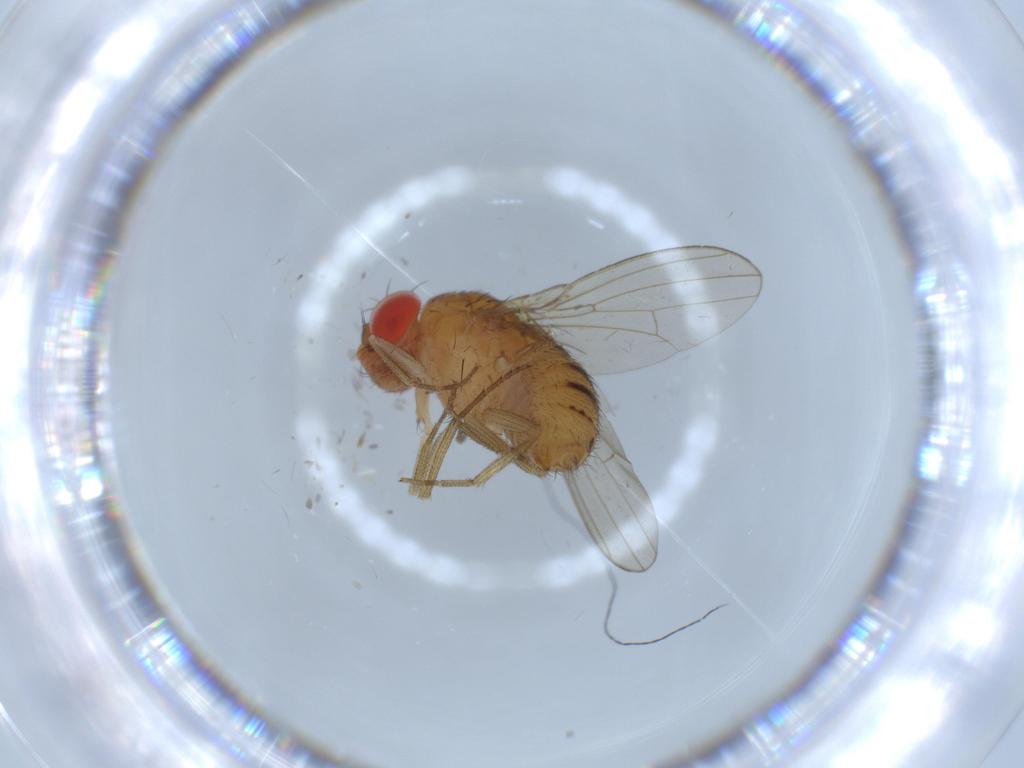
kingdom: Animalia
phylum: Arthropoda
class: Insecta
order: Diptera
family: Drosophilidae
